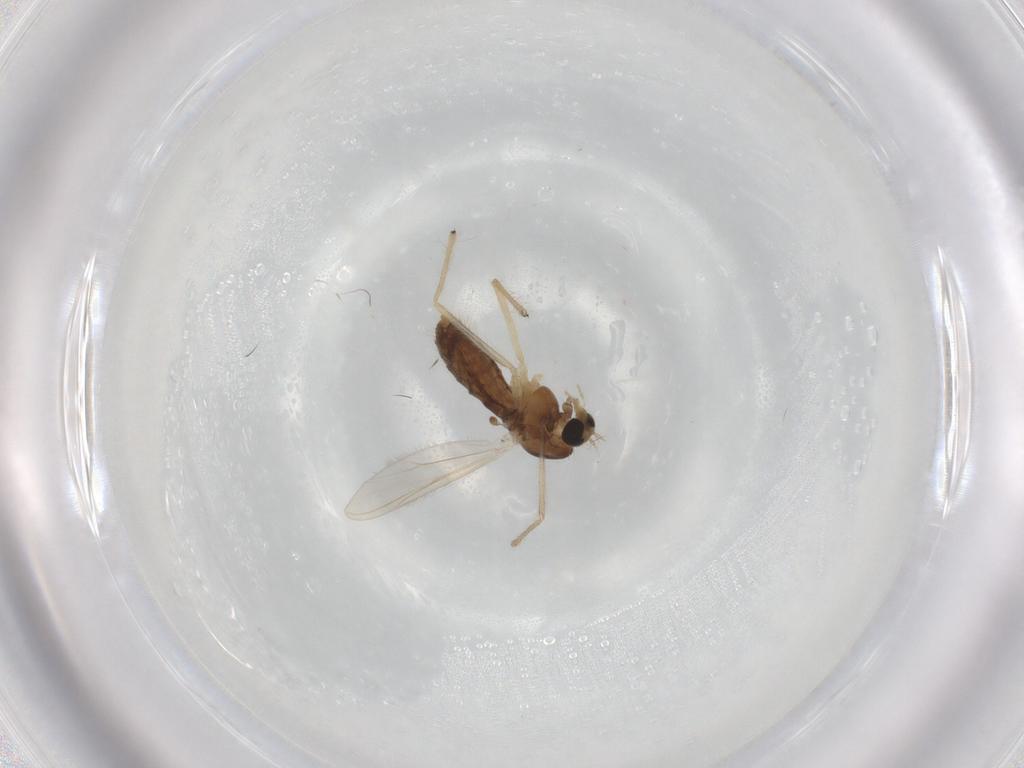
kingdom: Animalia
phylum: Arthropoda
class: Insecta
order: Diptera
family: Chironomidae
